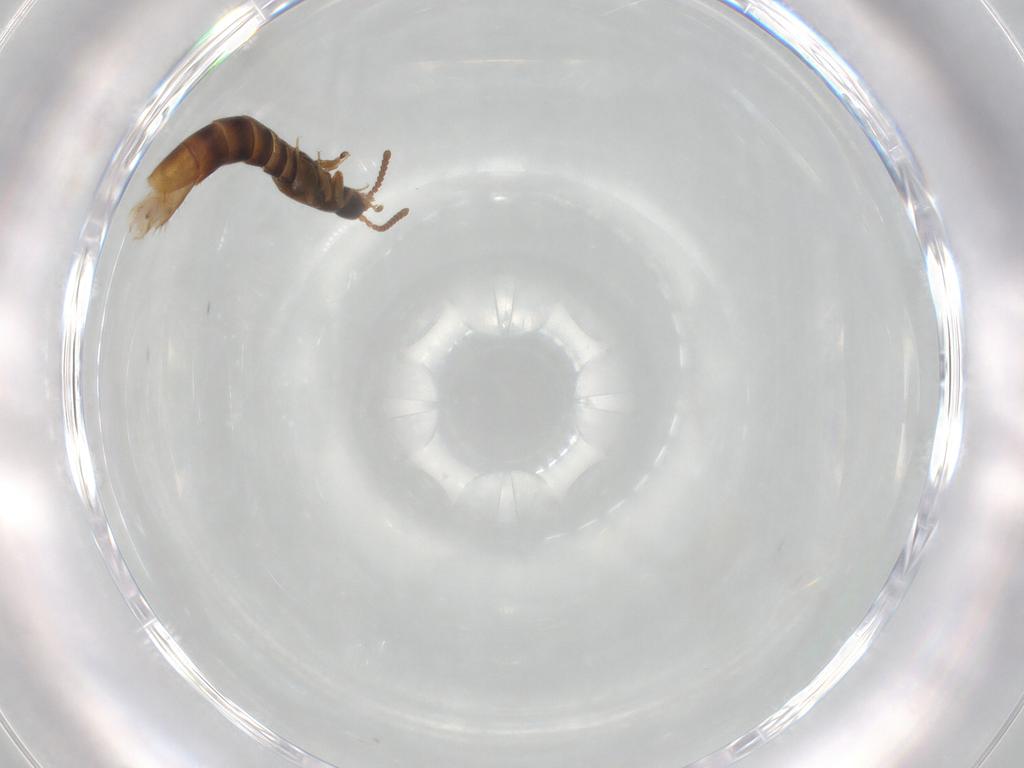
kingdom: Animalia
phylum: Arthropoda
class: Insecta
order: Coleoptera
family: Staphylinidae
